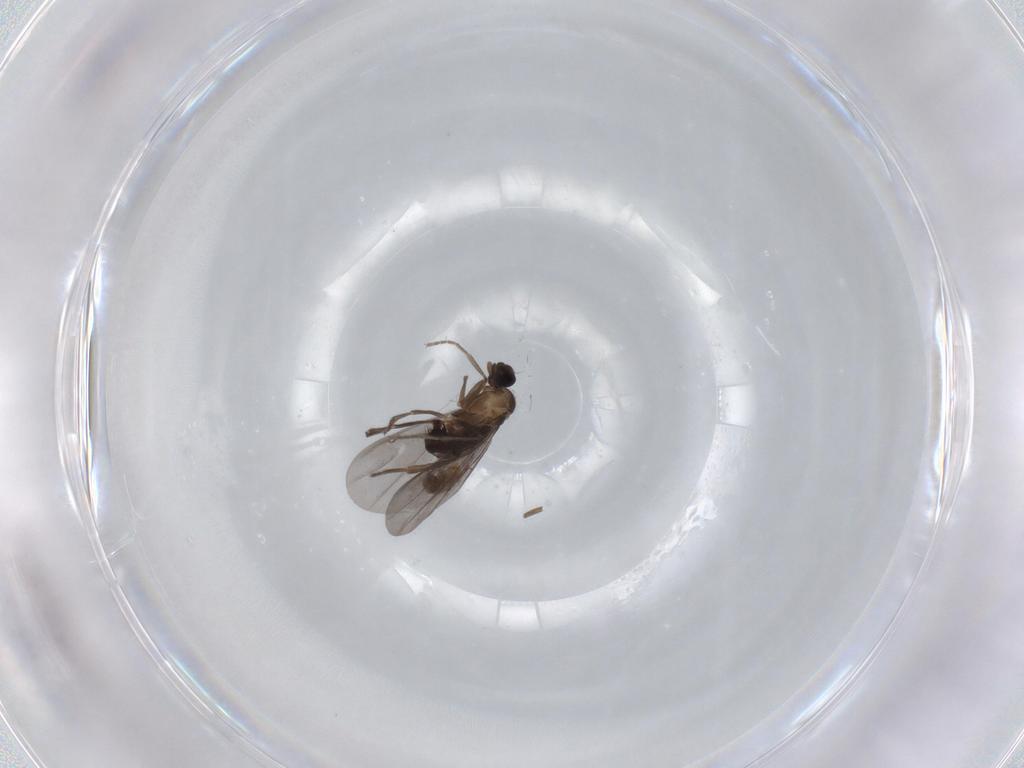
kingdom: Animalia
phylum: Arthropoda
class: Insecta
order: Diptera
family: Phoridae
